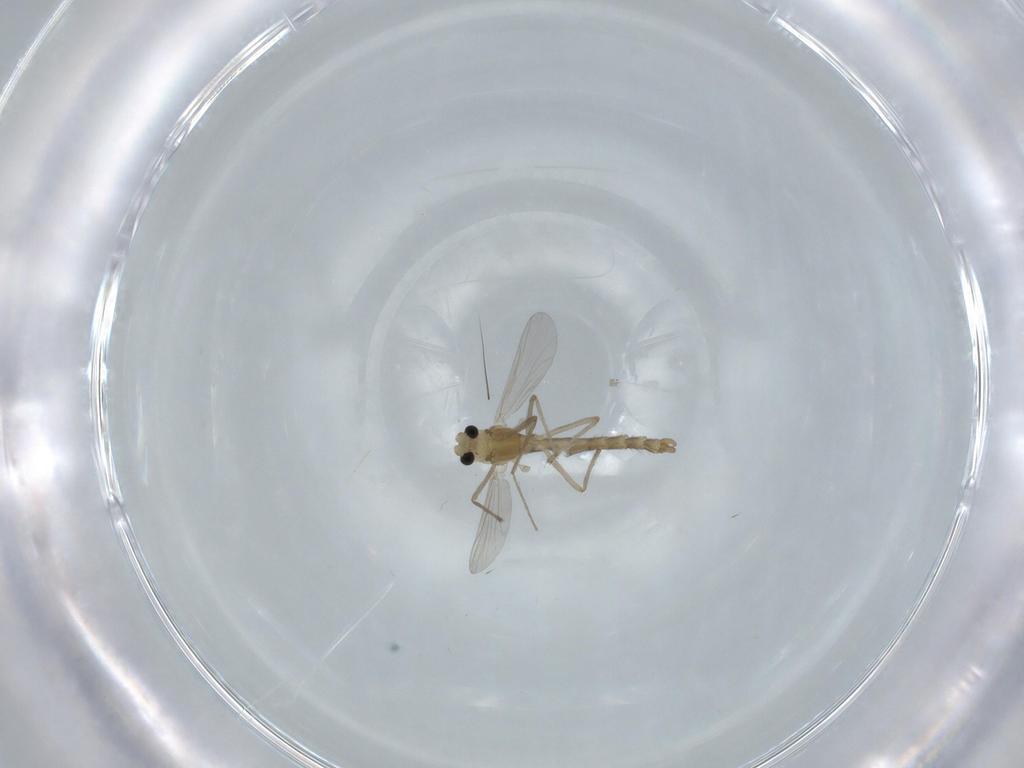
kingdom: Animalia
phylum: Arthropoda
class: Insecta
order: Diptera
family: Chironomidae
